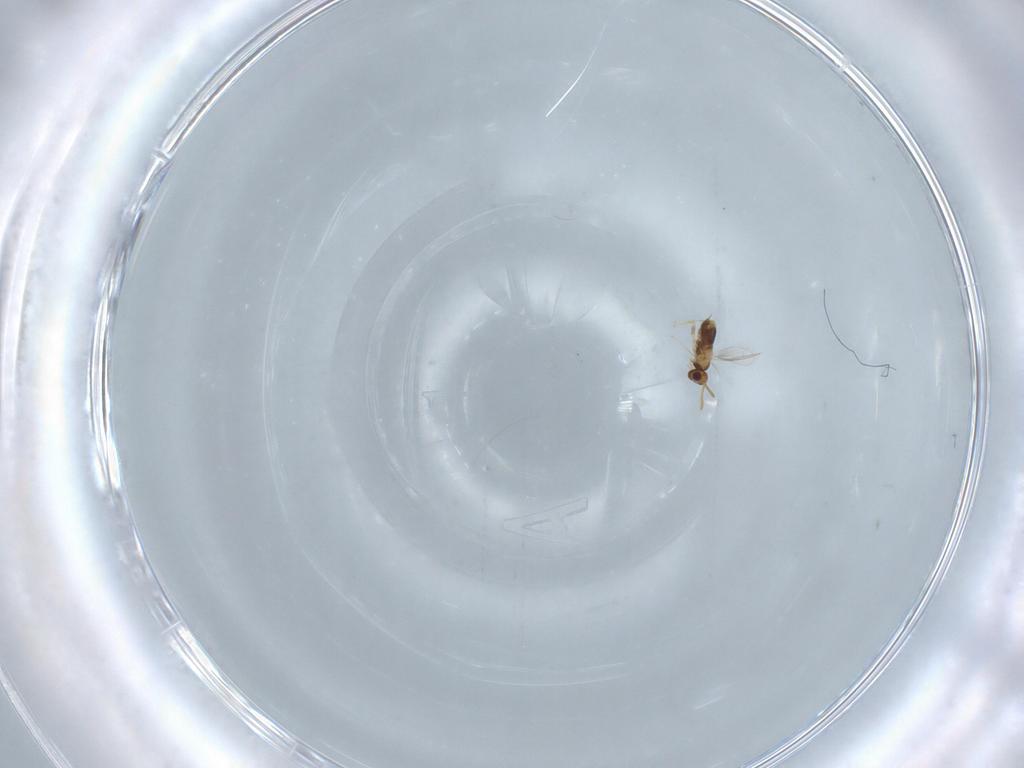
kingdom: Animalia
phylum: Arthropoda
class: Insecta
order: Hymenoptera
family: Aphelinidae
